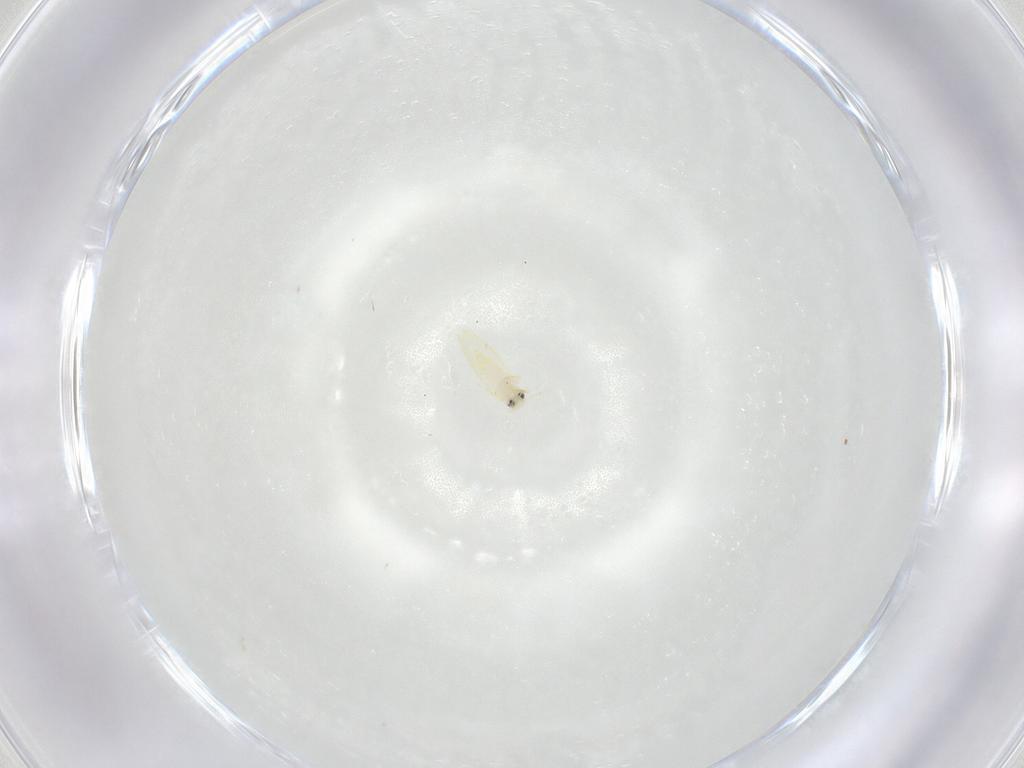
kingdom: Animalia
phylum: Arthropoda
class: Insecta
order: Hemiptera
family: Aleyrodidae
